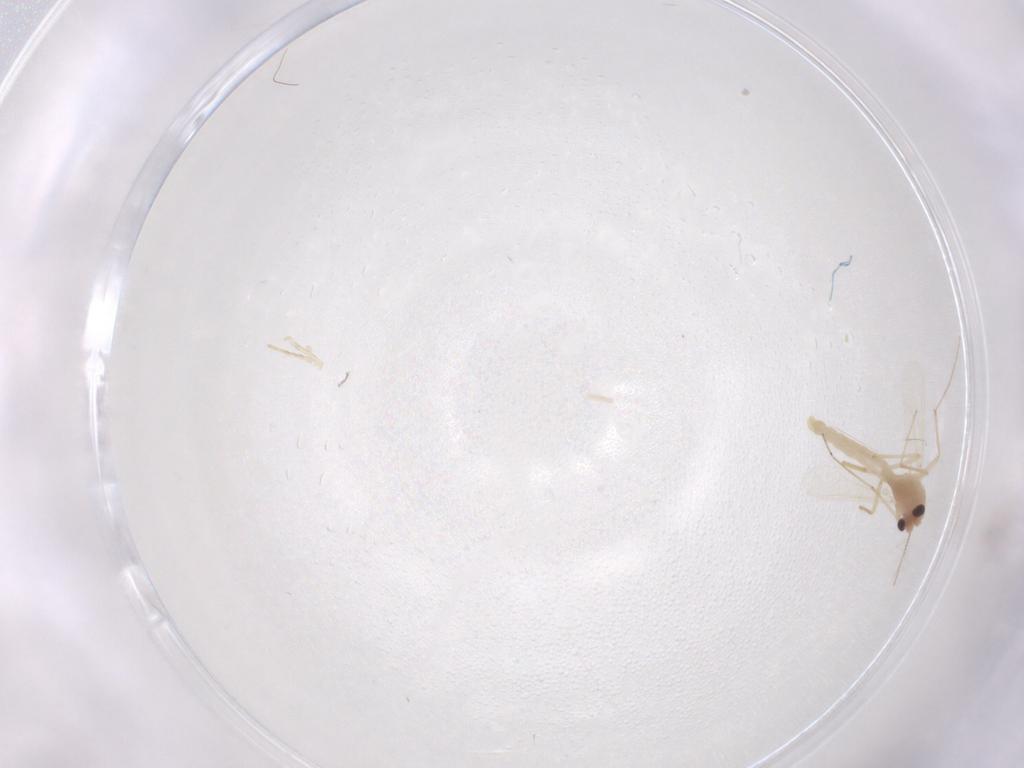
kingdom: Animalia
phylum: Arthropoda
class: Insecta
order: Diptera
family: Chironomidae
